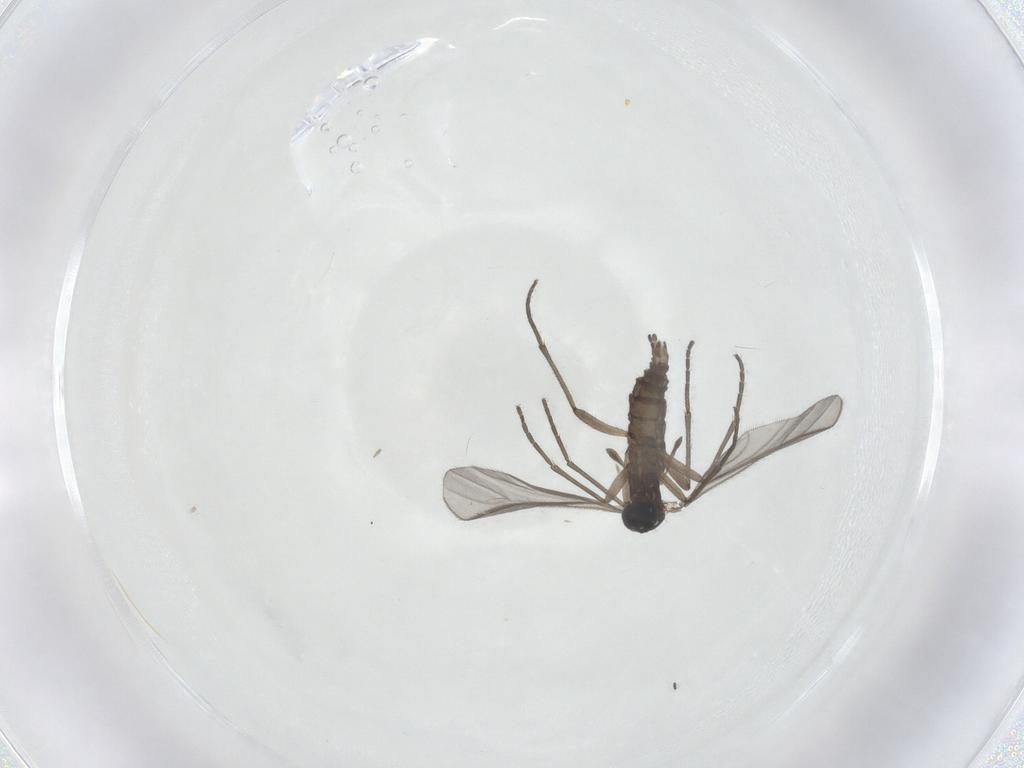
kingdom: Animalia
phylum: Arthropoda
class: Insecta
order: Diptera
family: Sciaridae
